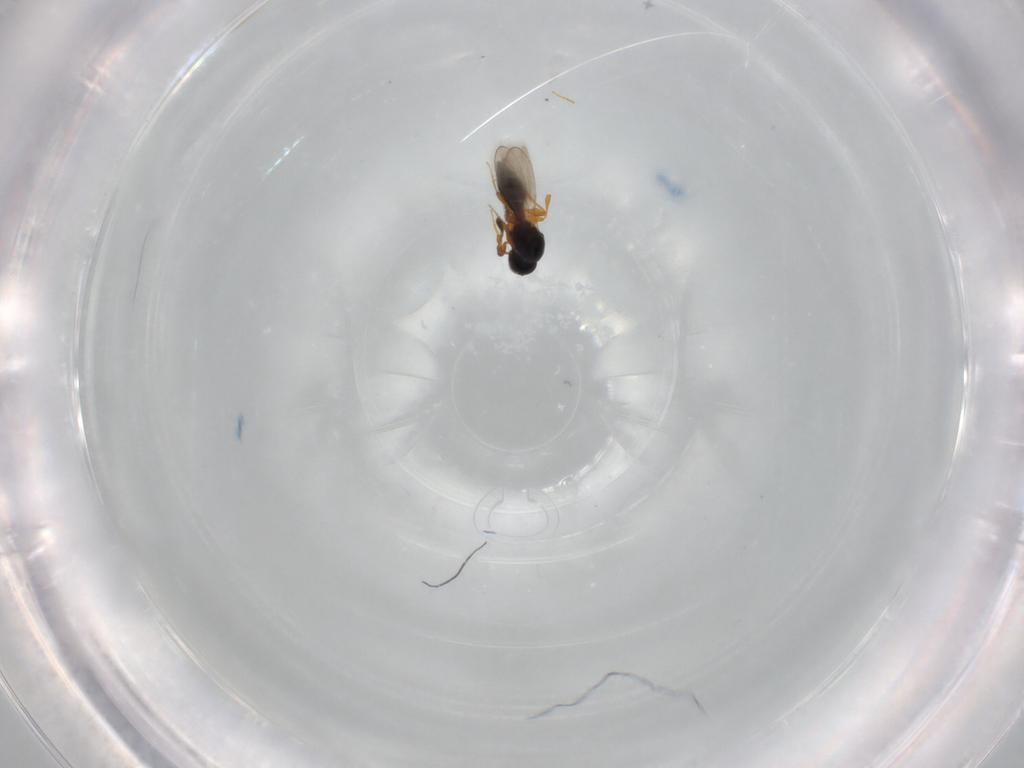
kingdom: Animalia
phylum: Arthropoda
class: Insecta
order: Hymenoptera
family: Platygastridae
